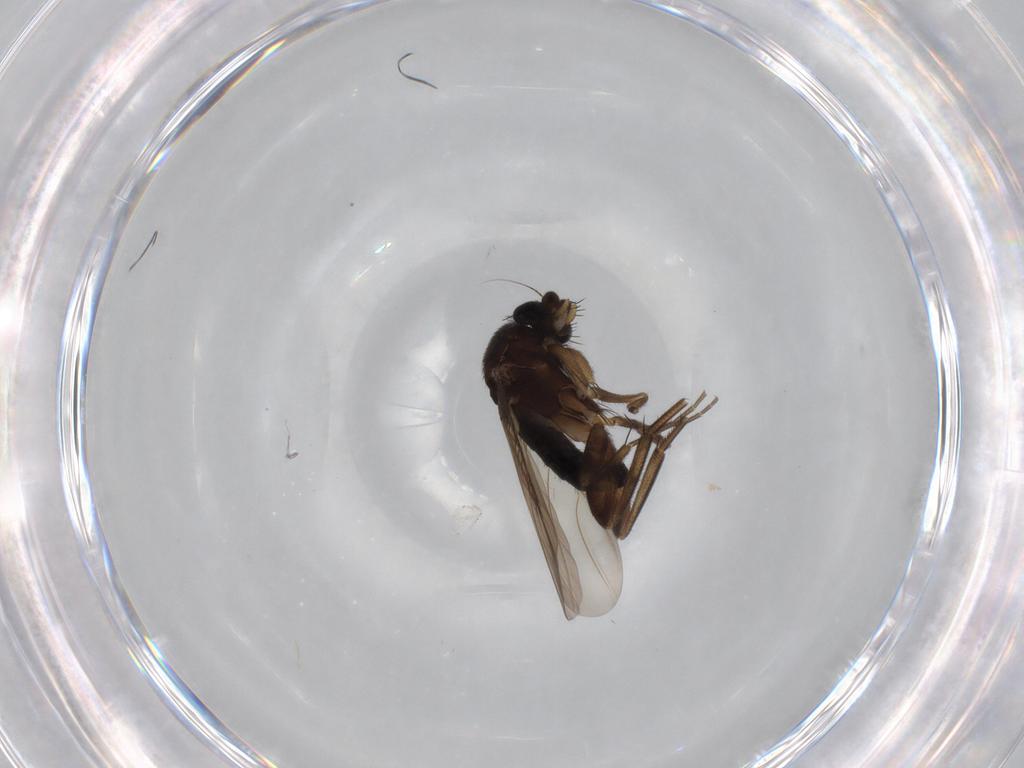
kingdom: Animalia
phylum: Arthropoda
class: Insecta
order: Diptera
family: Phoridae
